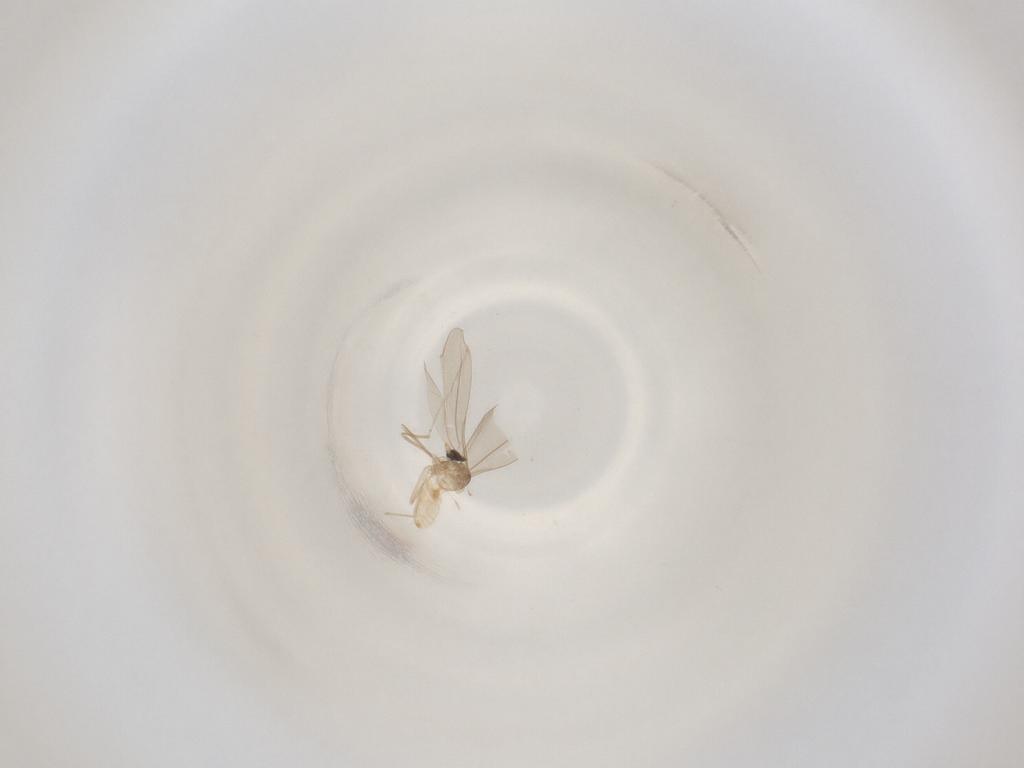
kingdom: Animalia
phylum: Arthropoda
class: Insecta
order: Diptera
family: Cecidomyiidae
